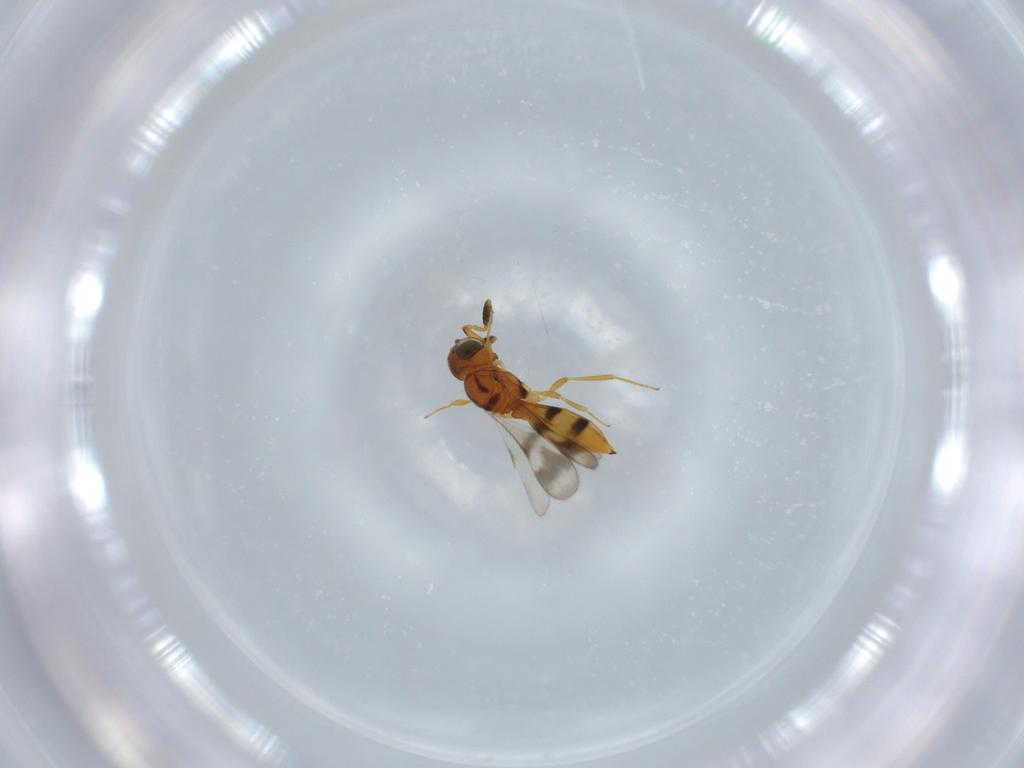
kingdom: Animalia
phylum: Arthropoda
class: Insecta
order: Hymenoptera
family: Scelionidae
